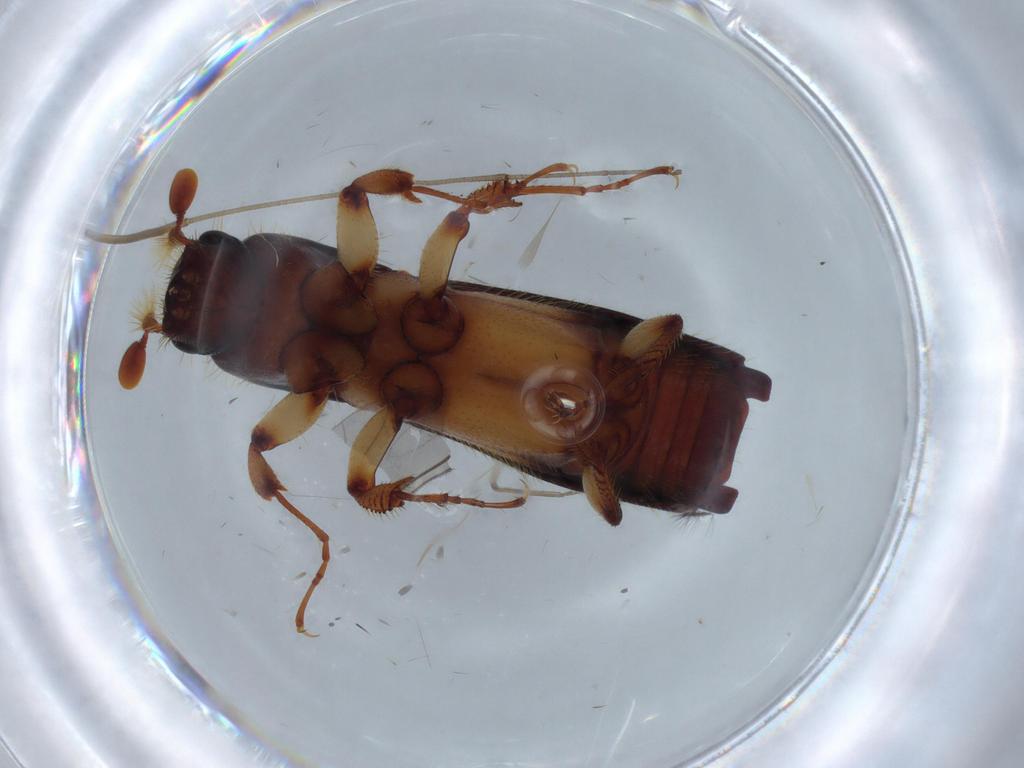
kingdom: Animalia
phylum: Arthropoda
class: Insecta
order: Coleoptera
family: Curculionidae
